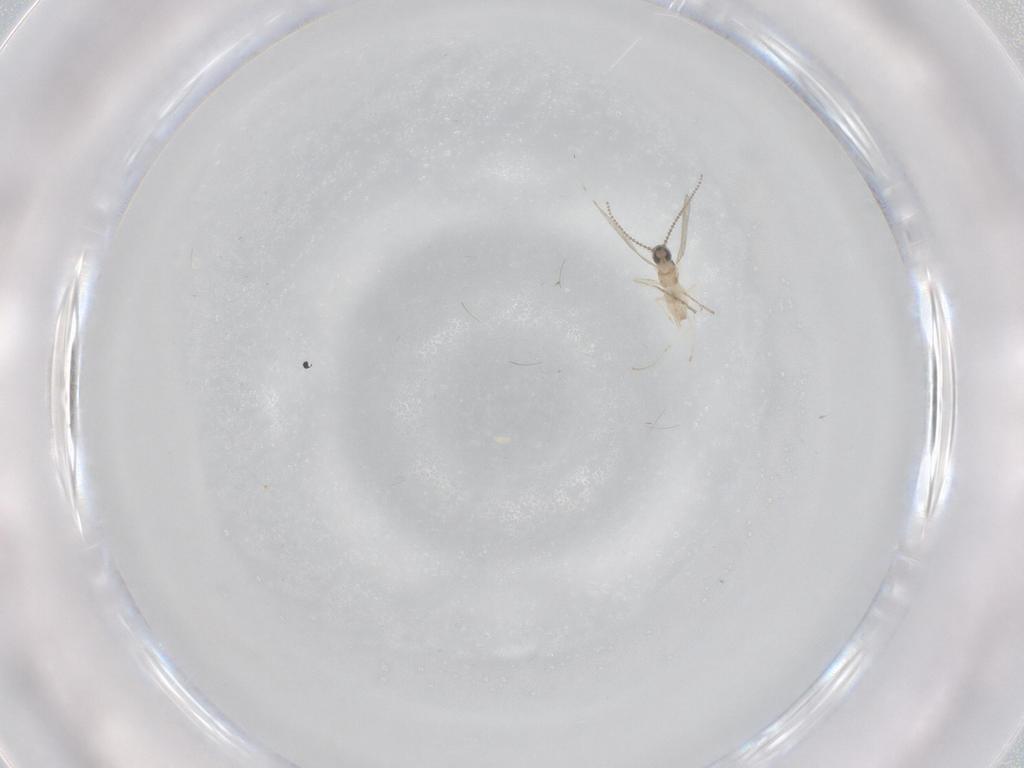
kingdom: Animalia
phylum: Arthropoda
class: Insecta
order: Diptera
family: Cecidomyiidae
